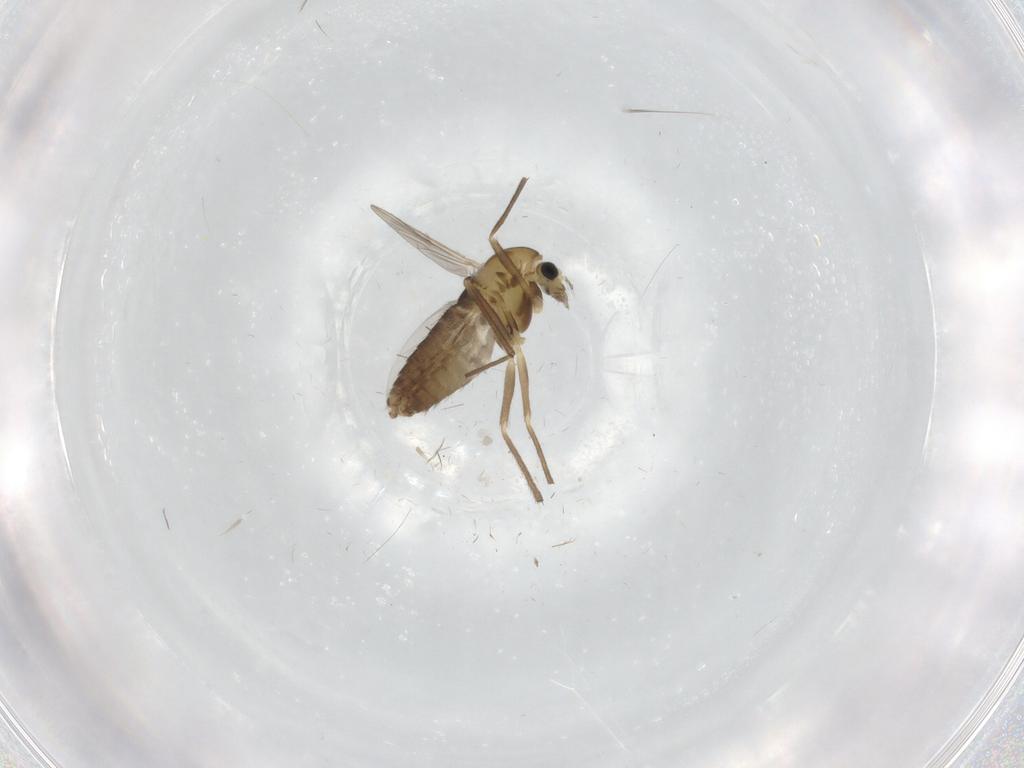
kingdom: Animalia
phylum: Arthropoda
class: Insecta
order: Diptera
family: Chironomidae
